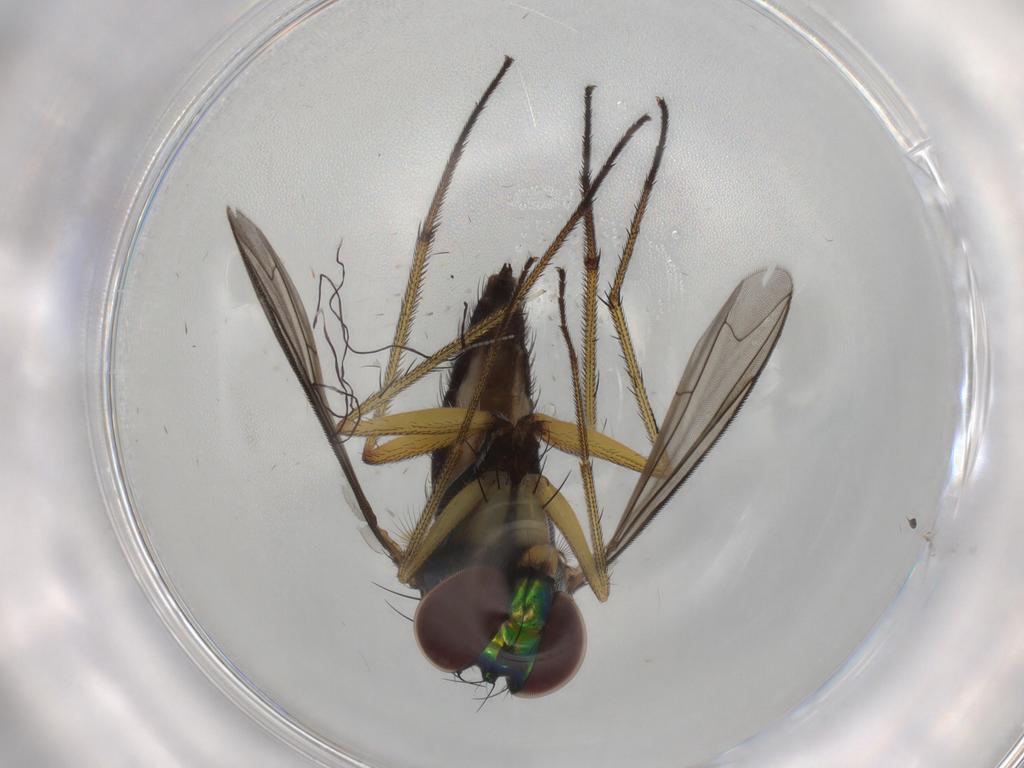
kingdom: Animalia
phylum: Arthropoda
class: Insecta
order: Diptera
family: Dolichopodidae
